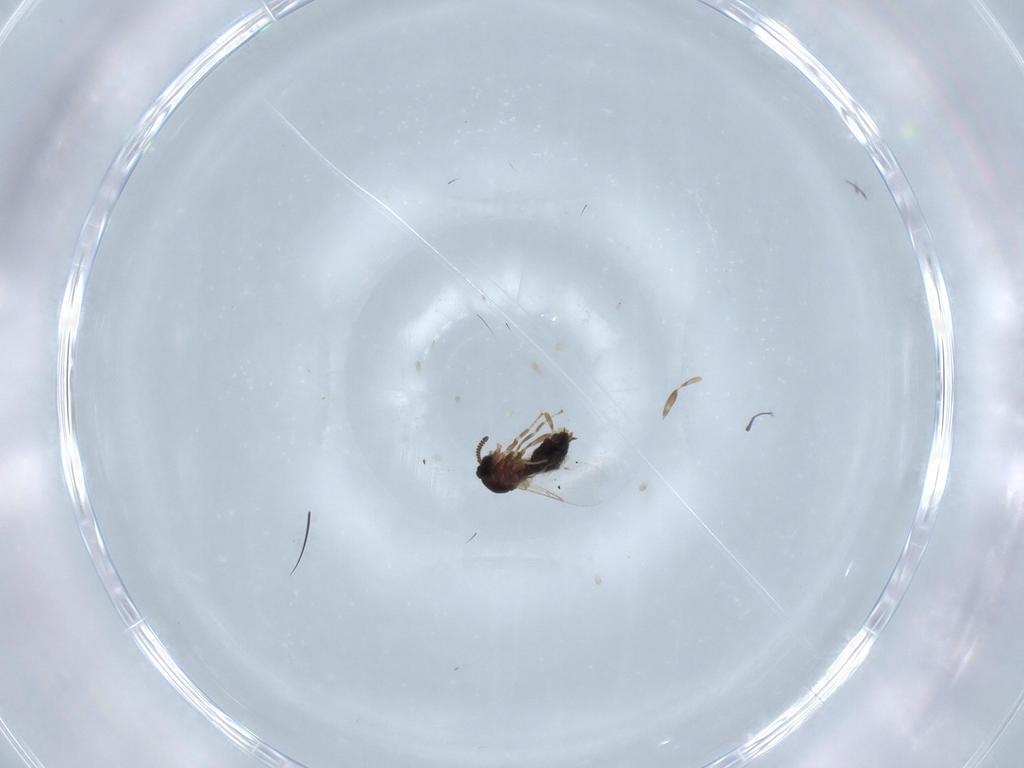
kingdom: Animalia
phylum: Arthropoda
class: Insecta
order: Diptera
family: Scatopsidae
